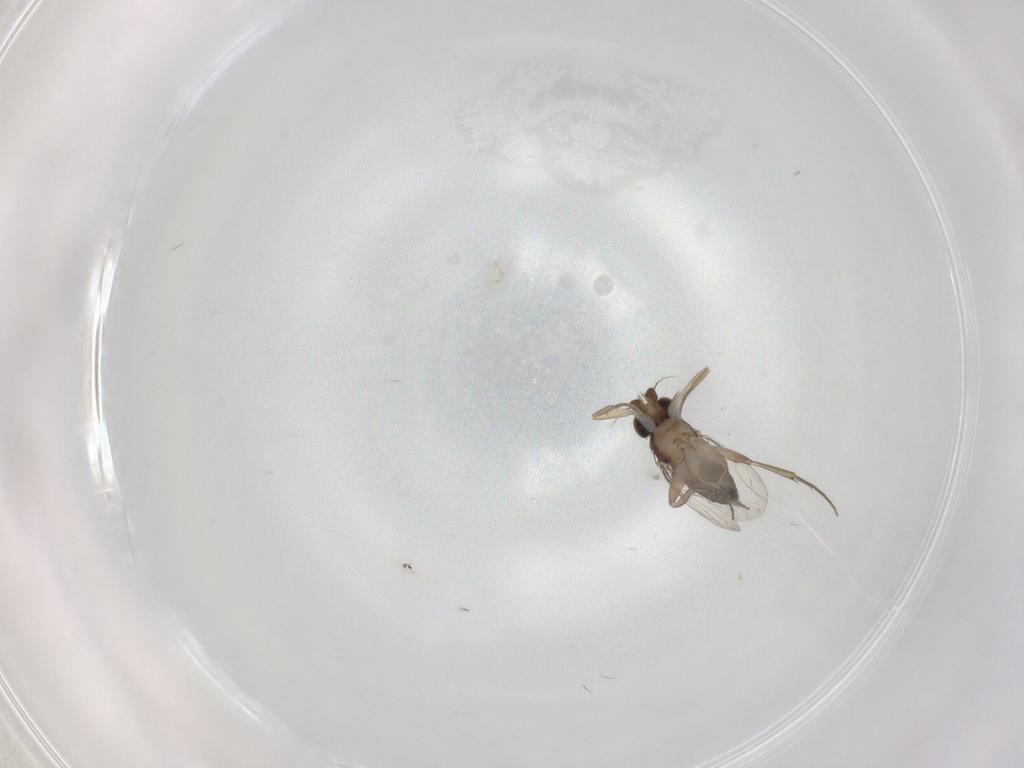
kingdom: Animalia
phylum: Arthropoda
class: Insecta
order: Diptera
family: Phoridae
